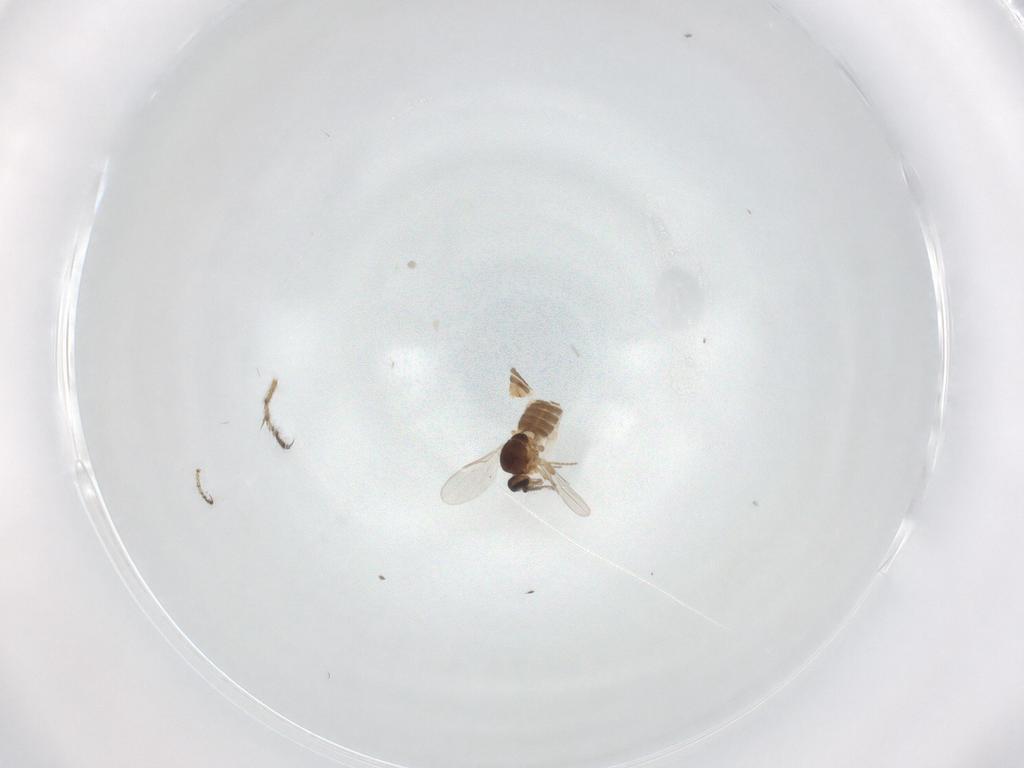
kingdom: Animalia
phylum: Arthropoda
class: Insecta
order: Diptera
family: Ceratopogonidae
